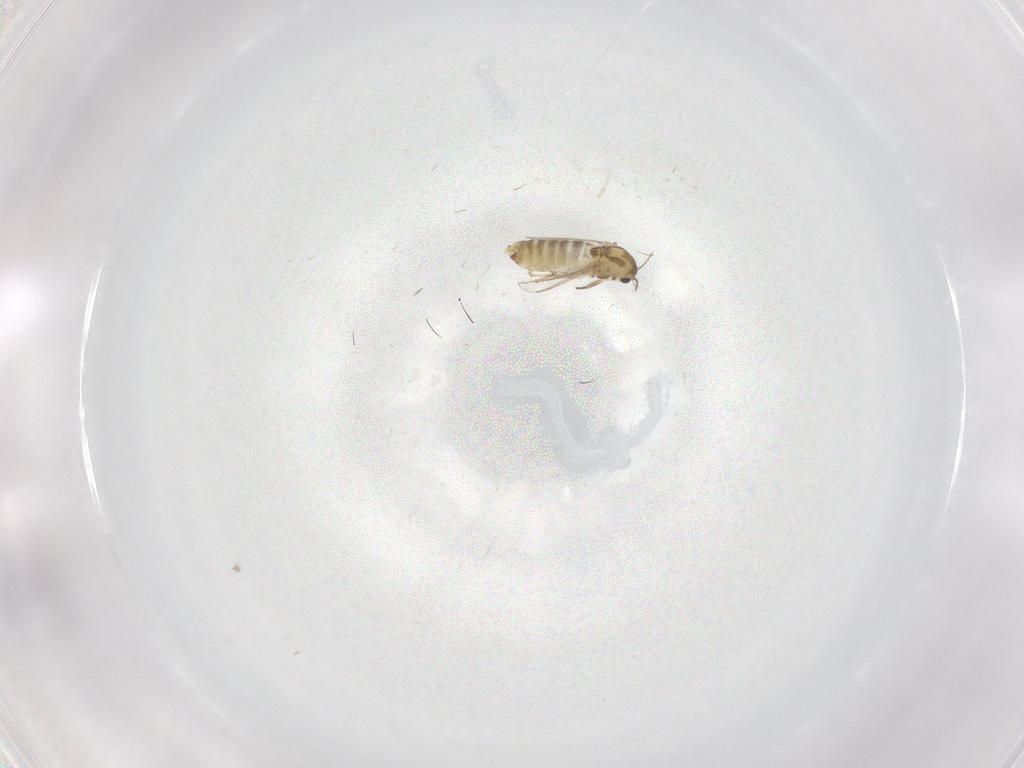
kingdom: Animalia
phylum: Arthropoda
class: Insecta
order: Diptera
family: Chironomidae
